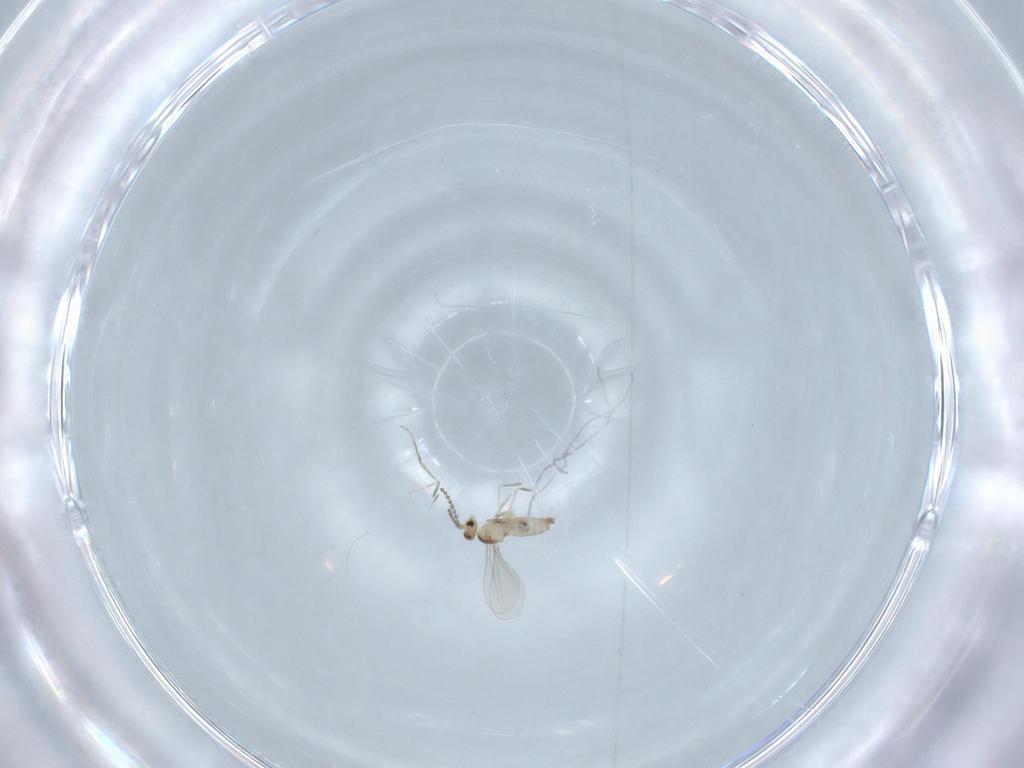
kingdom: Animalia
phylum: Arthropoda
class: Insecta
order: Diptera
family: Cecidomyiidae
